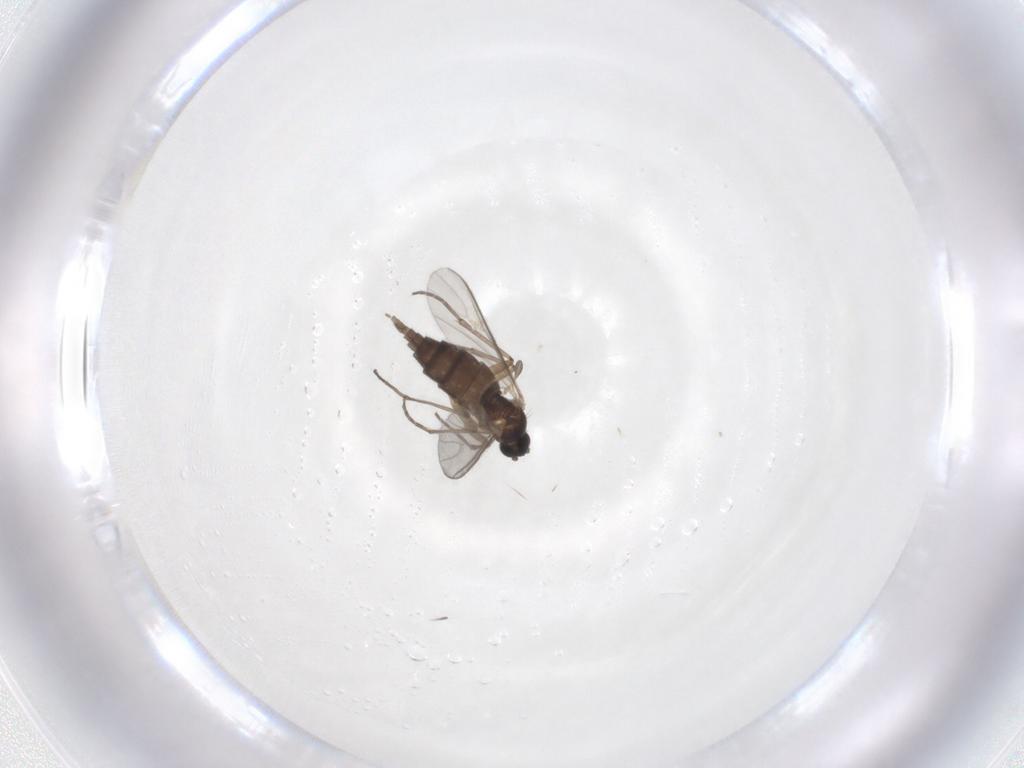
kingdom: Animalia
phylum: Arthropoda
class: Insecta
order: Diptera
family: Sciaridae
